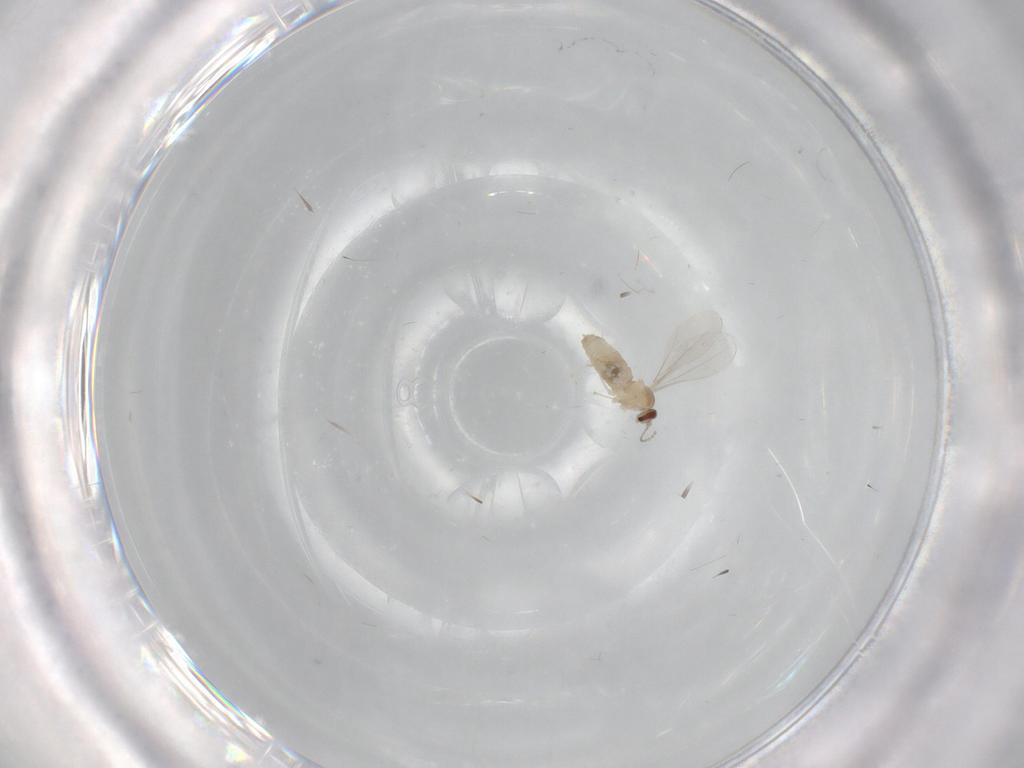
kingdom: Animalia
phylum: Arthropoda
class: Insecta
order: Diptera
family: Cecidomyiidae
